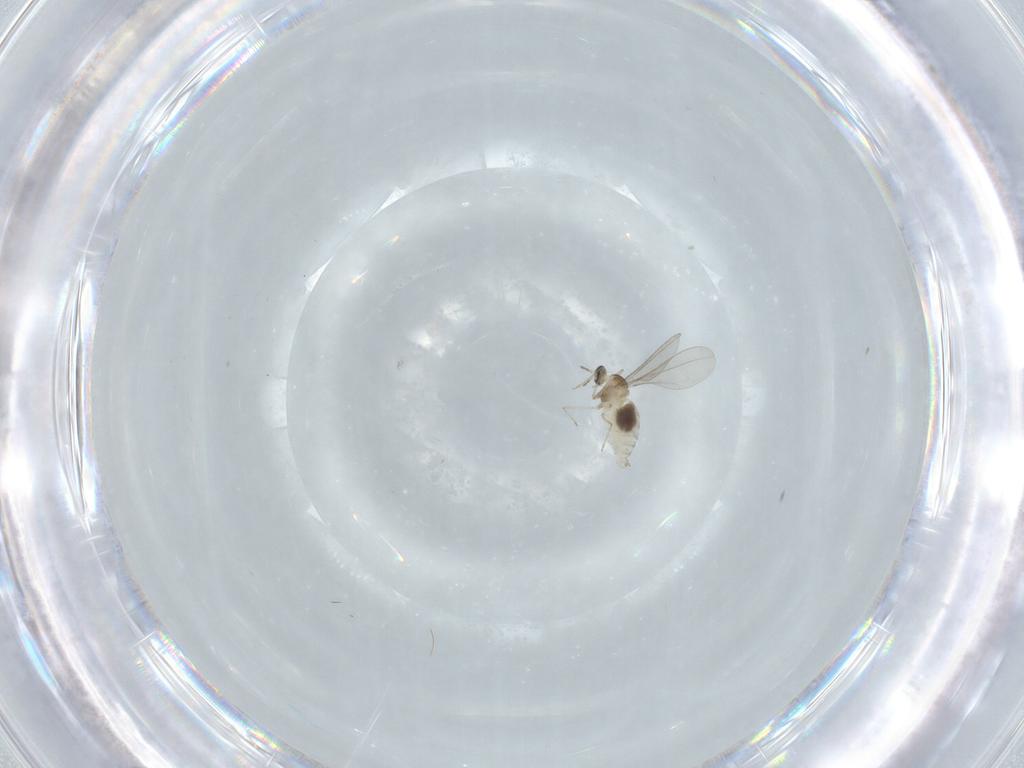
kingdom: Animalia
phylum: Arthropoda
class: Insecta
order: Diptera
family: Cecidomyiidae
